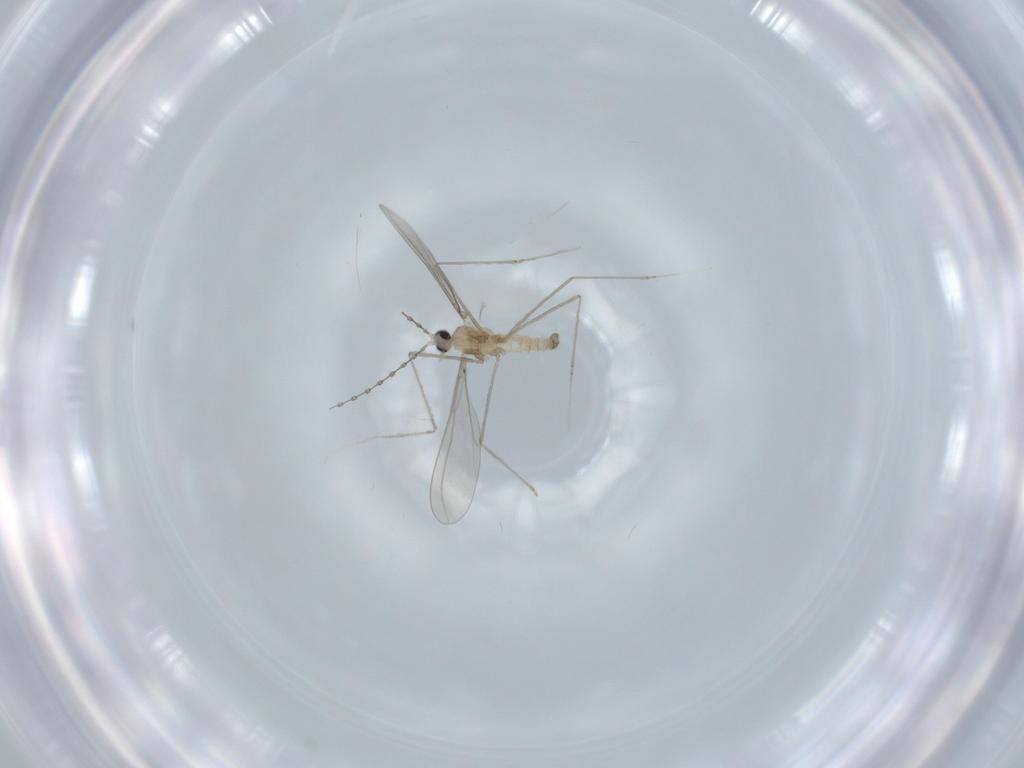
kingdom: Animalia
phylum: Arthropoda
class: Insecta
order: Diptera
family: Cecidomyiidae
